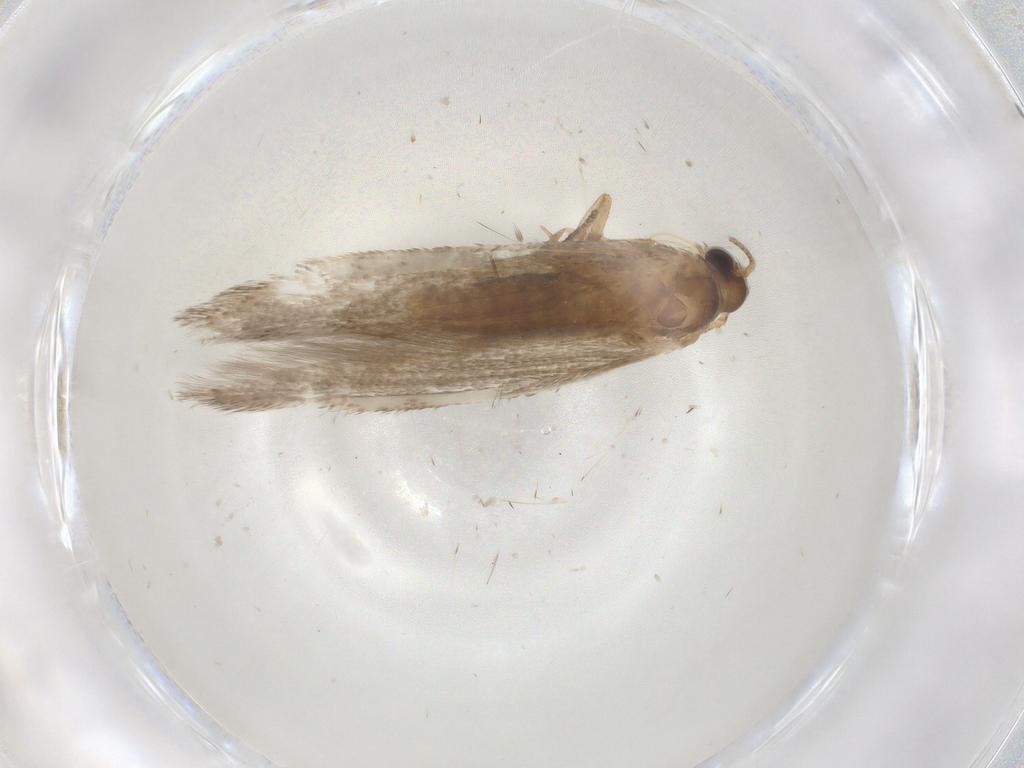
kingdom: Animalia
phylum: Arthropoda
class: Insecta
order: Lepidoptera
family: Coleophoridae
